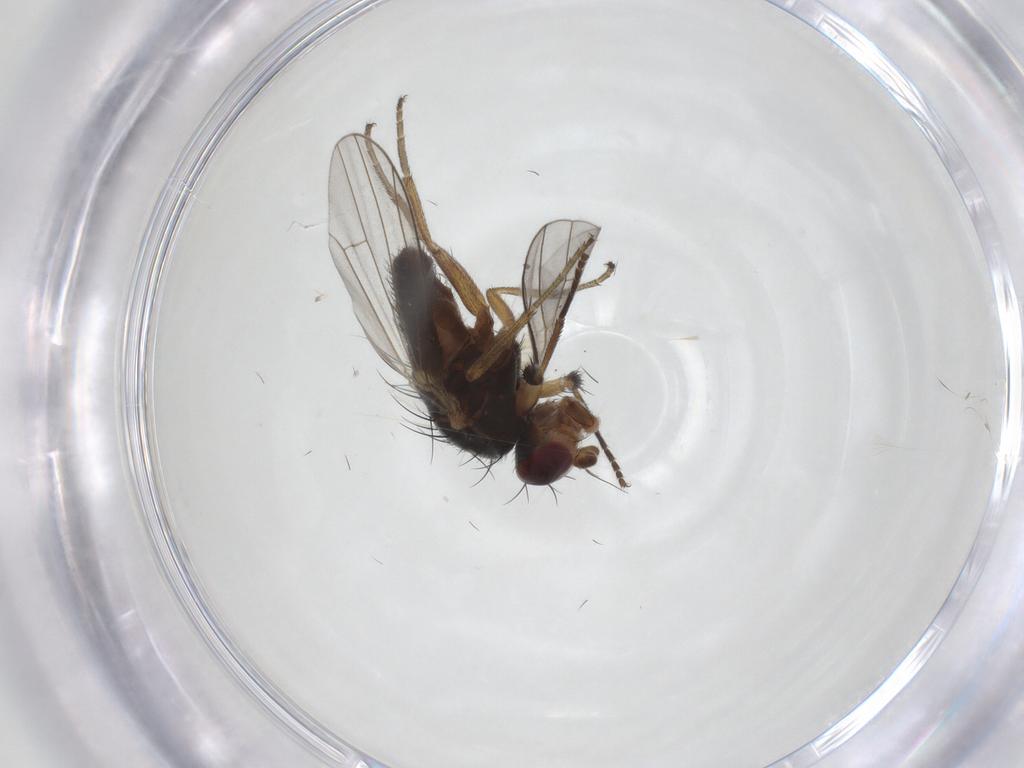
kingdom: Animalia
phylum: Arthropoda
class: Insecta
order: Diptera
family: Heleomyzidae
